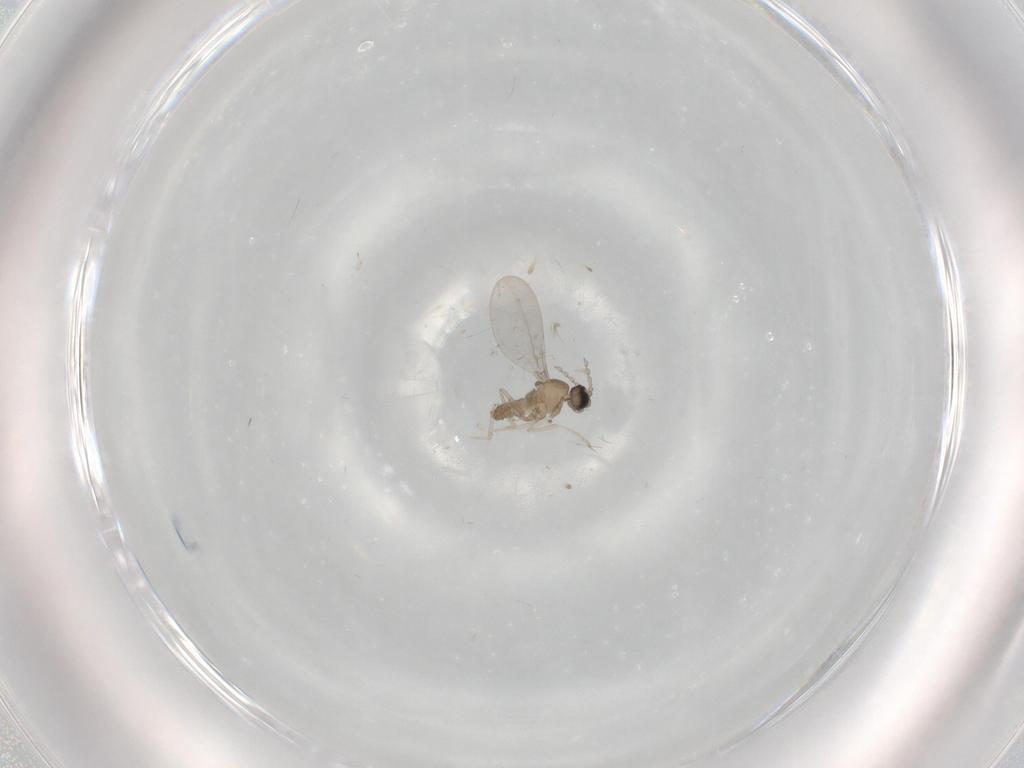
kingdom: Animalia
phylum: Arthropoda
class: Insecta
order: Diptera
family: Cecidomyiidae
